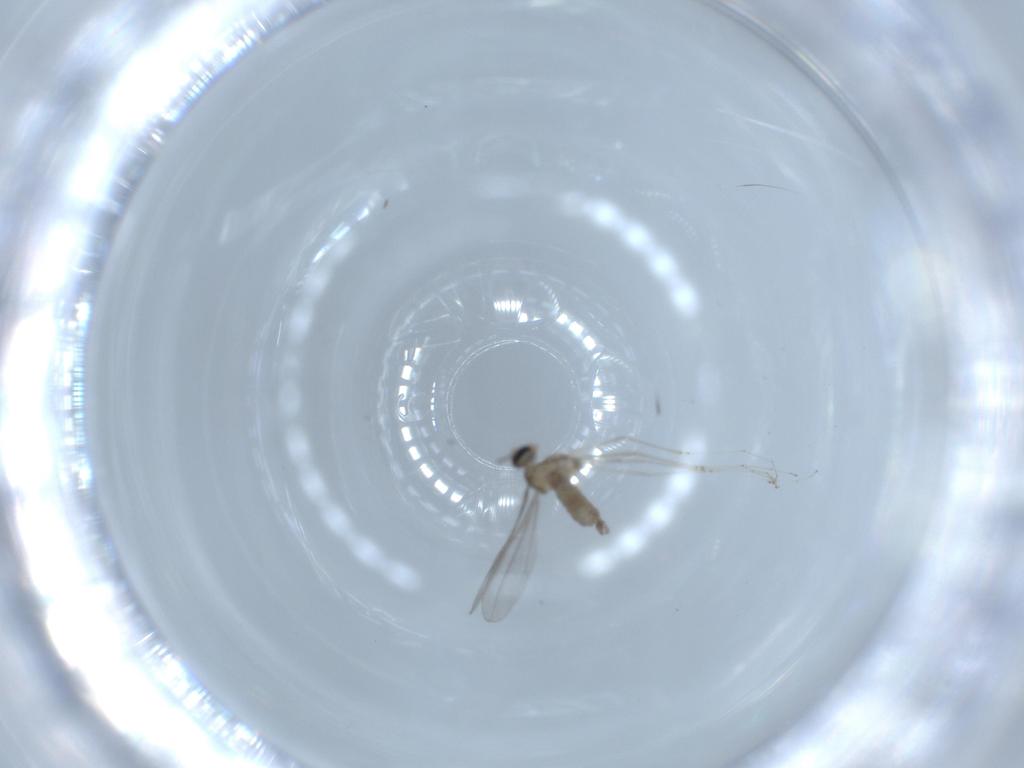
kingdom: Animalia
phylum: Arthropoda
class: Insecta
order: Diptera
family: Cecidomyiidae
